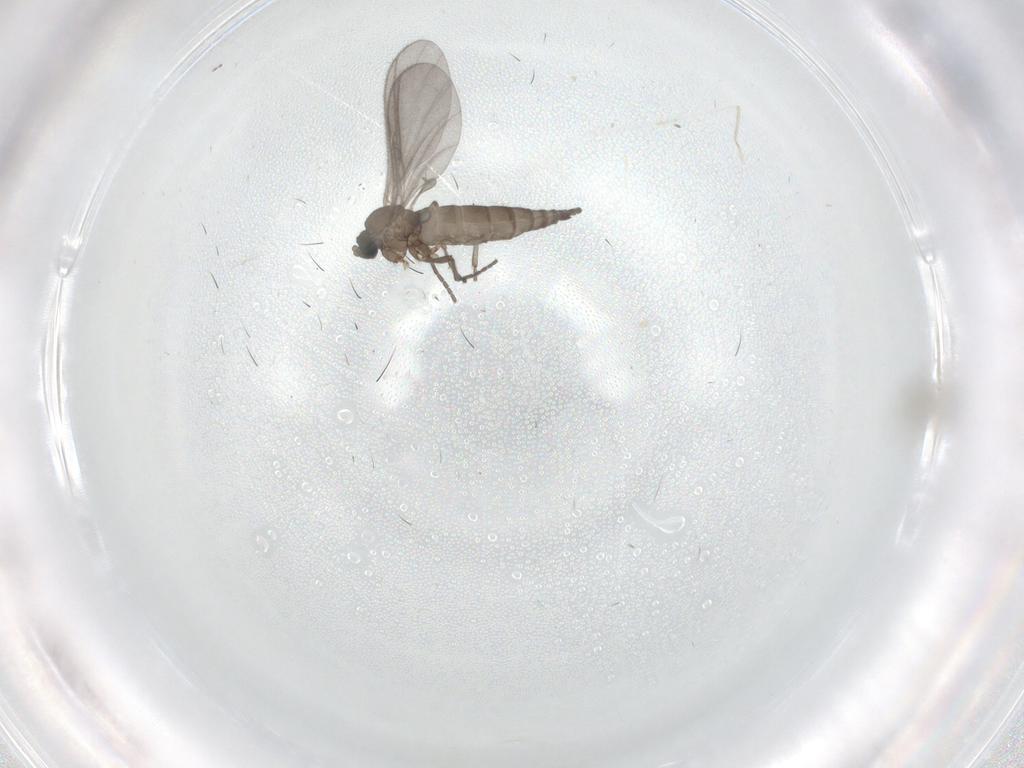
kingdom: Animalia
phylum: Arthropoda
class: Insecta
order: Diptera
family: Sciaridae
